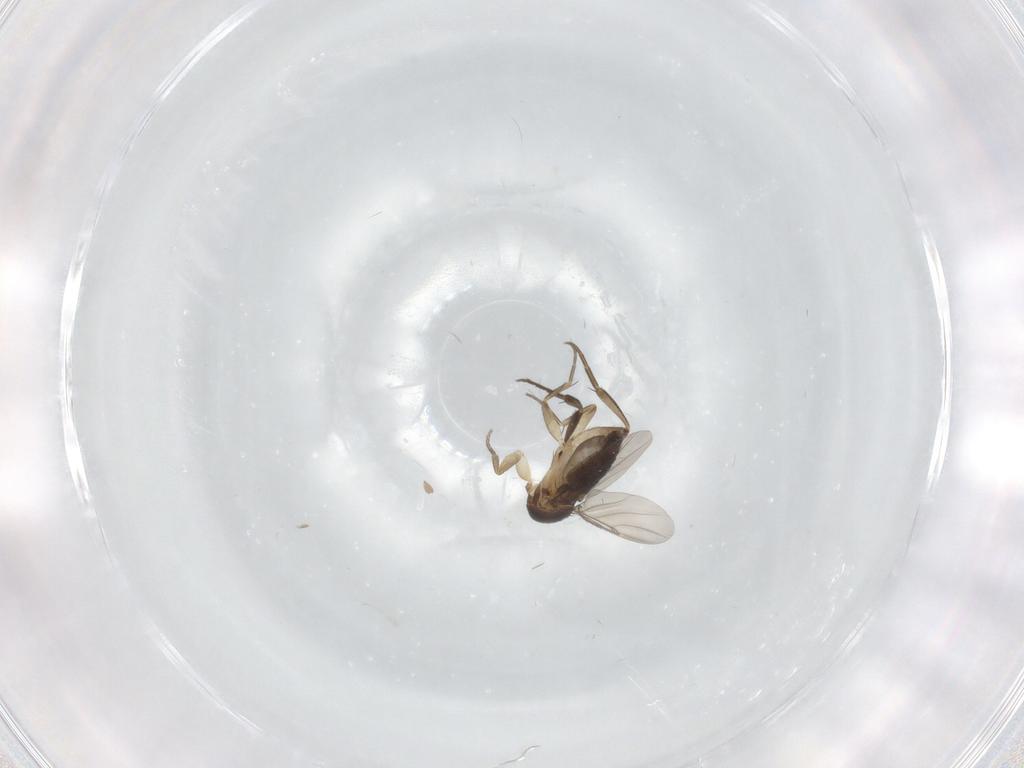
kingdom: Animalia
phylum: Arthropoda
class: Insecta
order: Diptera
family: Phoridae
